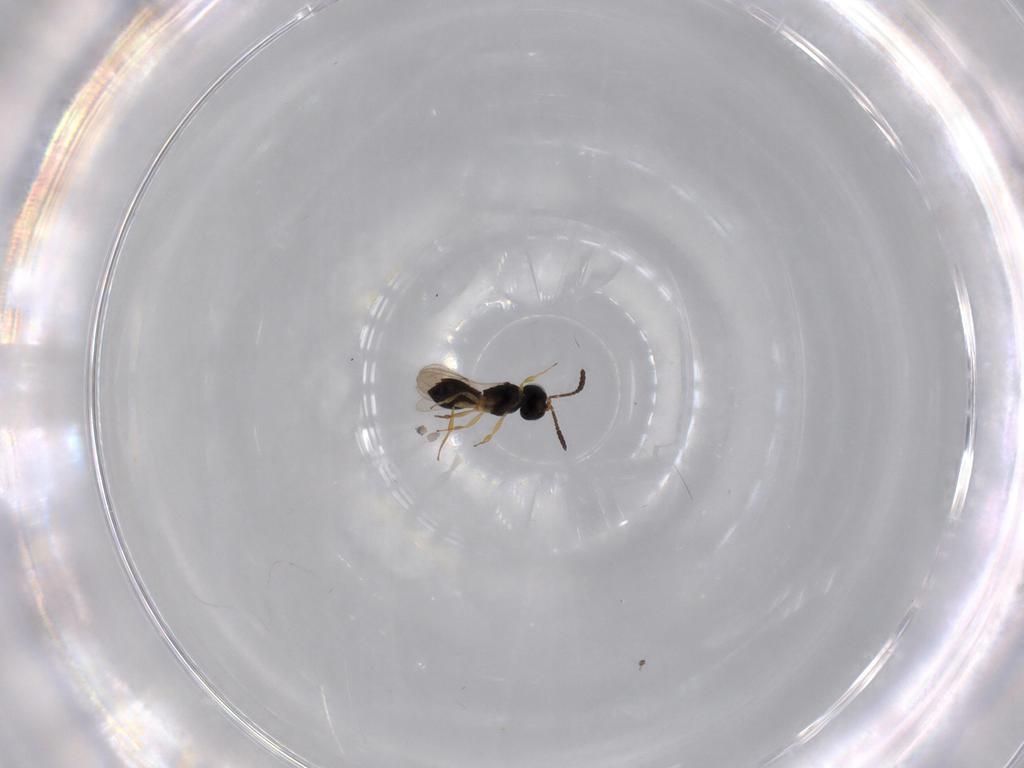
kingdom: Animalia
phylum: Arthropoda
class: Insecta
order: Hymenoptera
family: Scelionidae
